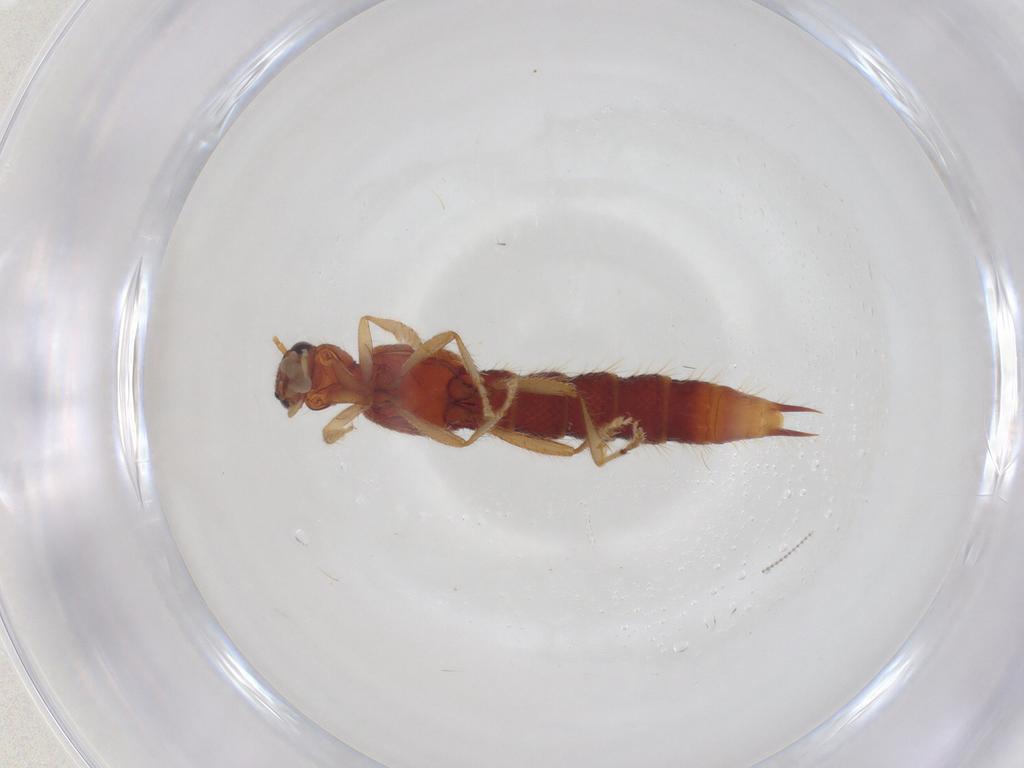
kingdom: Animalia
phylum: Arthropoda
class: Insecta
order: Coleoptera
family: Staphylinidae
